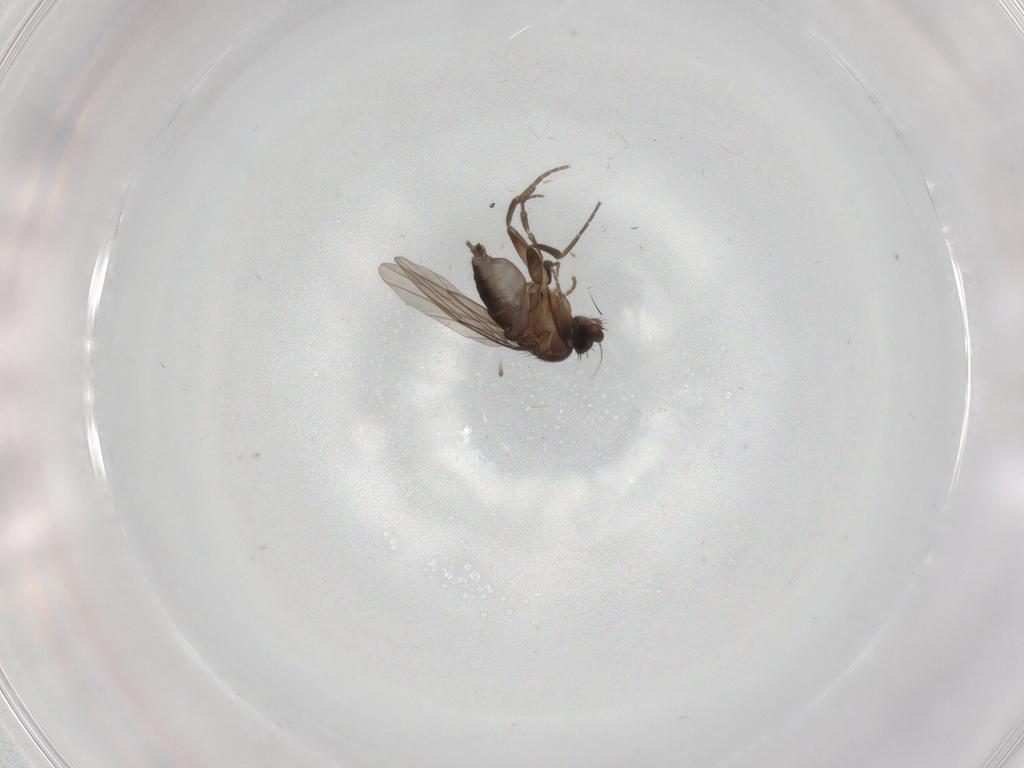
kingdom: Animalia
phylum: Arthropoda
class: Insecta
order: Diptera
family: Phoridae
